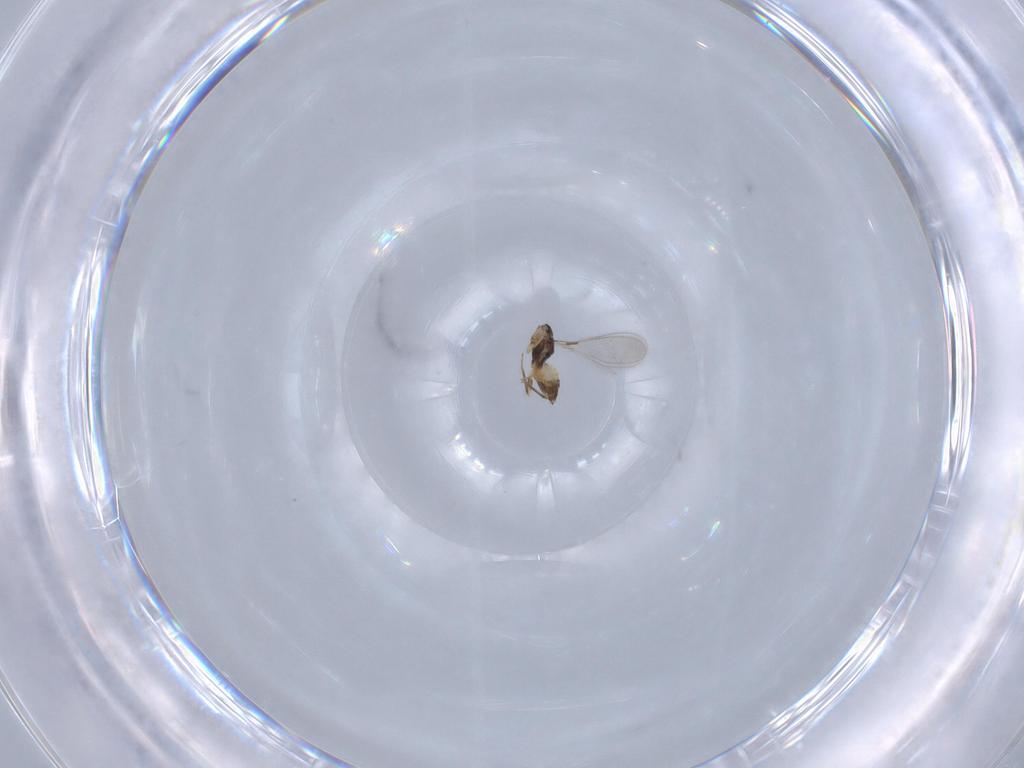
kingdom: Animalia
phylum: Arthropoda
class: Insecta
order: Hymenoptera
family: Mymaridae
